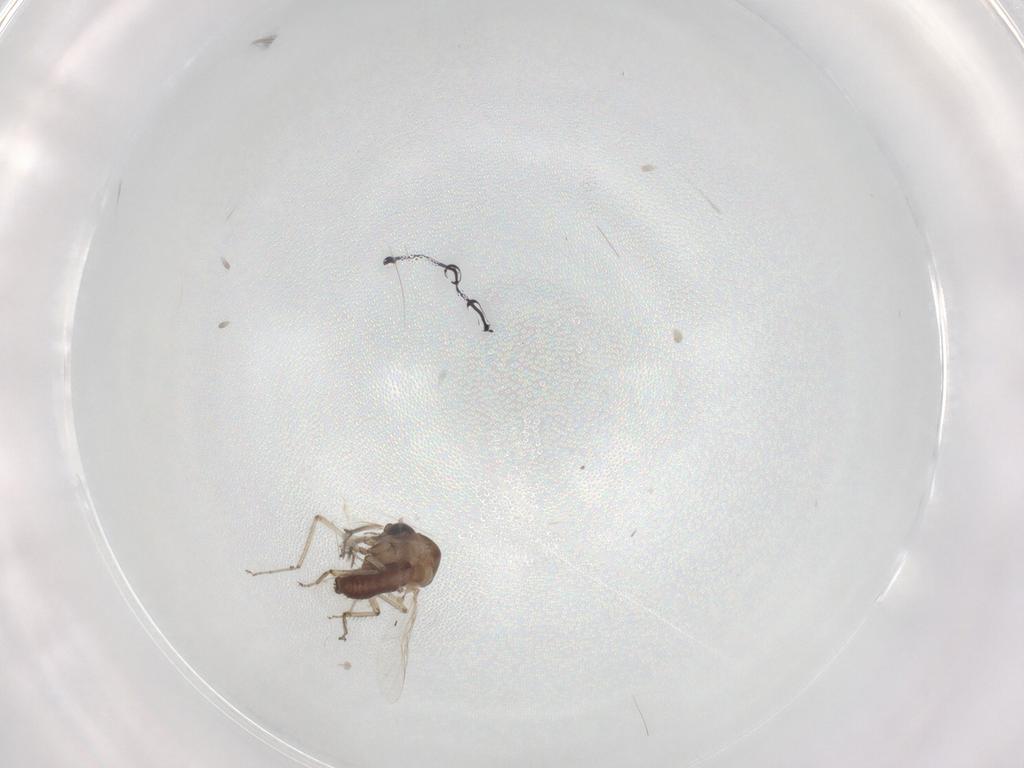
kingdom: Animalia
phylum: Arthropoda
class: Insecta
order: Diptera
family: Ceratopogonidae
